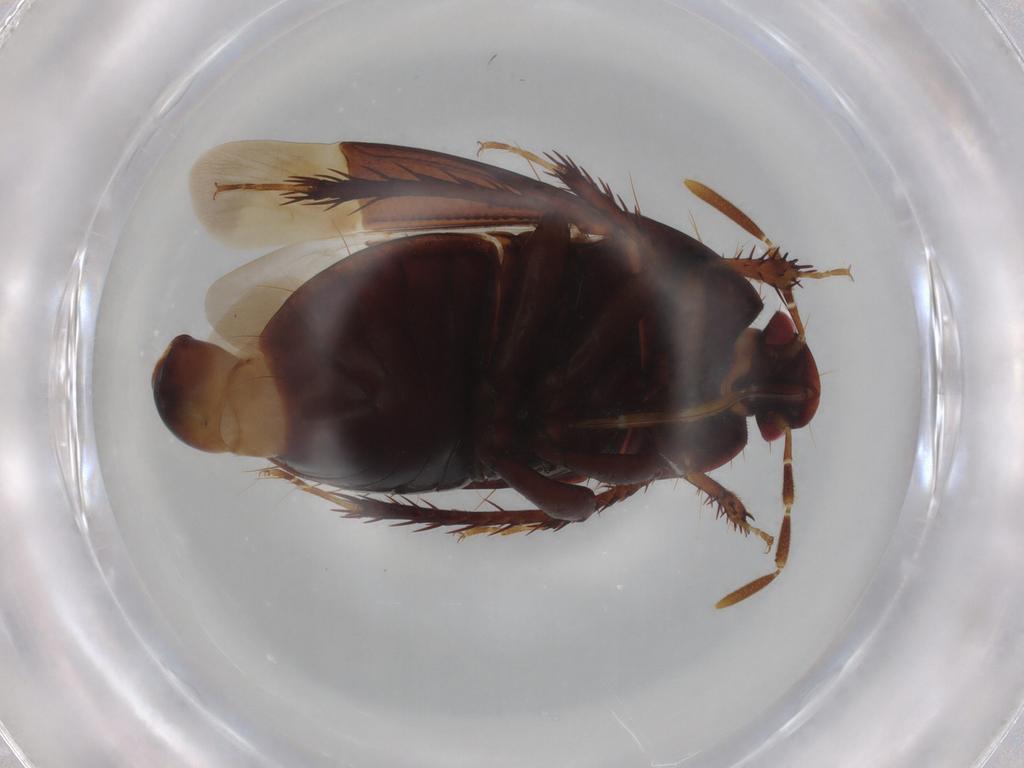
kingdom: Animalia
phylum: Arthropoda
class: Insecta
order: Hemiptera
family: Cydnidae
